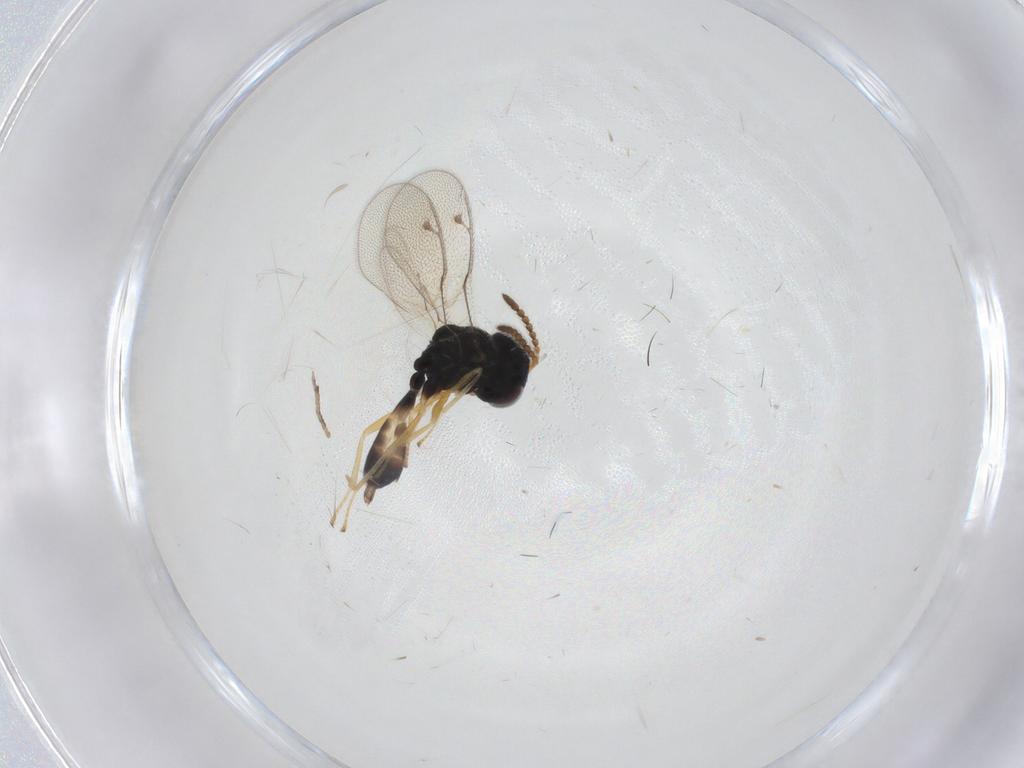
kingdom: Animalia
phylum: Arthropoda
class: Insecta
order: Hymenoptera
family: Pteromalidae
